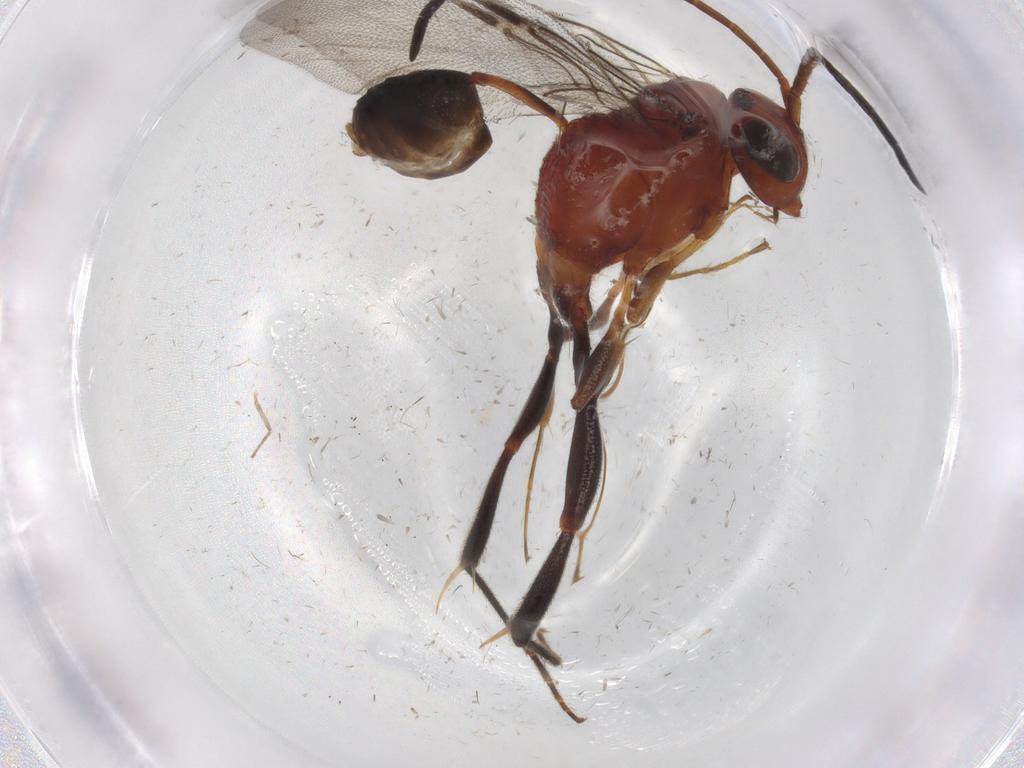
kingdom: Animalia
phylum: Arthropoda
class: Insecta
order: Hymenoptera
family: Evaniidae
